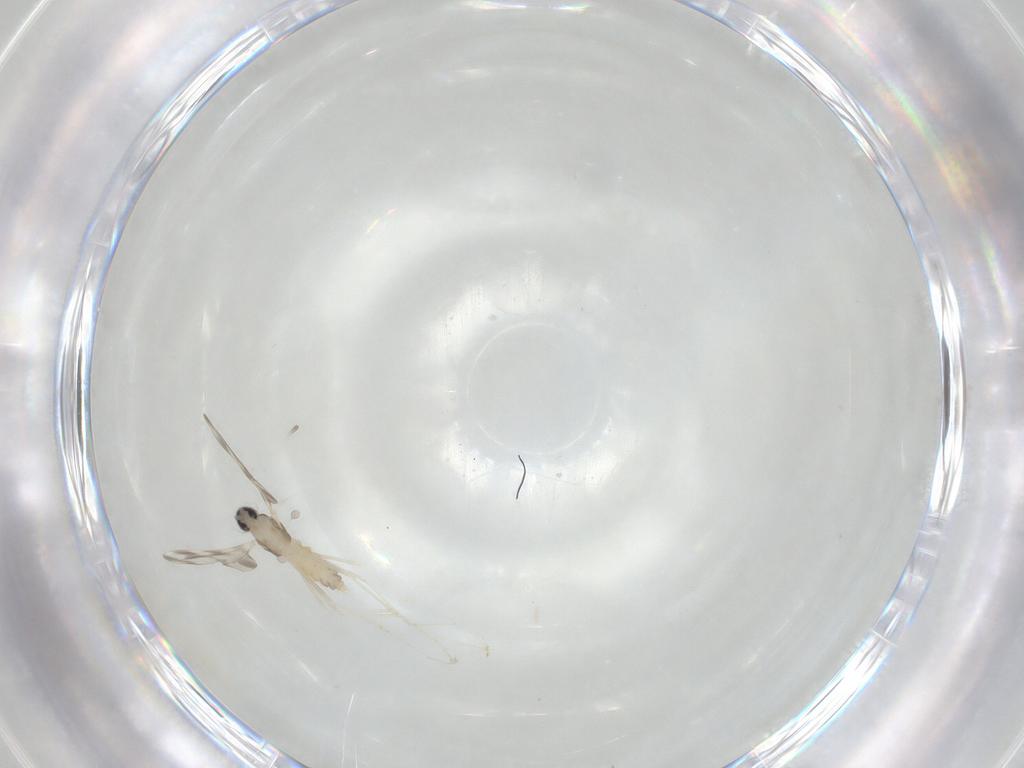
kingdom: Animalia
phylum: Arthropoda
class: Insecta
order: Diptera
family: Cecidomyiidae
